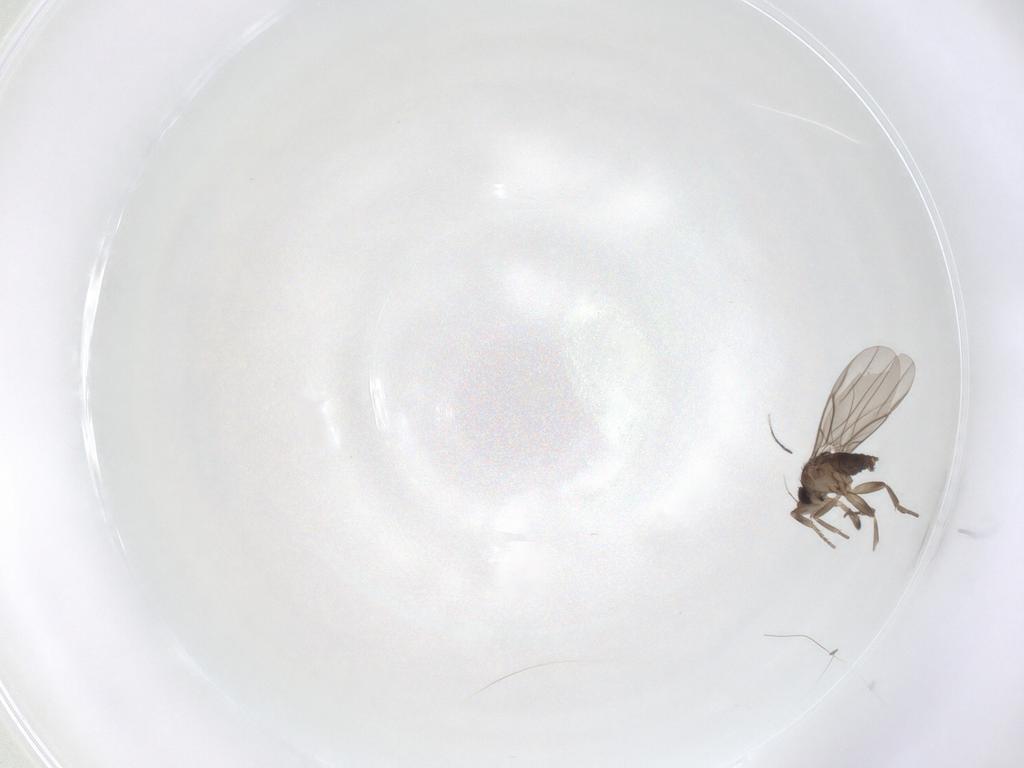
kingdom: Animalia
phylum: Arthropoda
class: Insecta
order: Diptera
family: Phoridae
